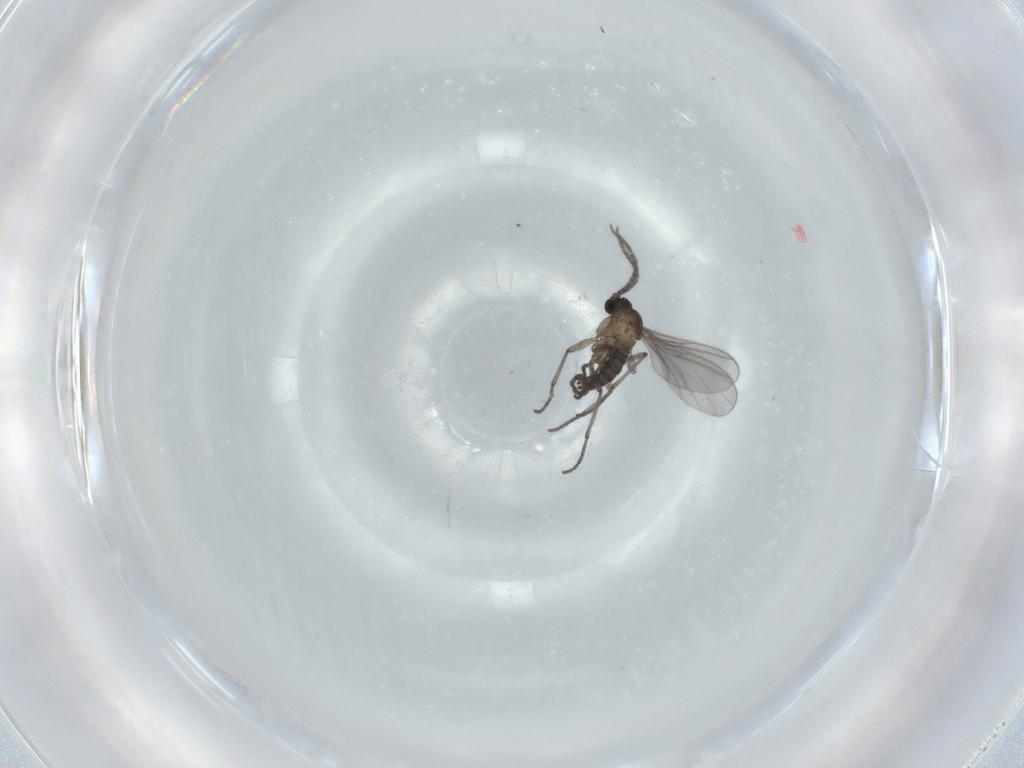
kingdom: Animalia
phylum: Arthropoda
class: Insecta
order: Diptera
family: Sciaridae
